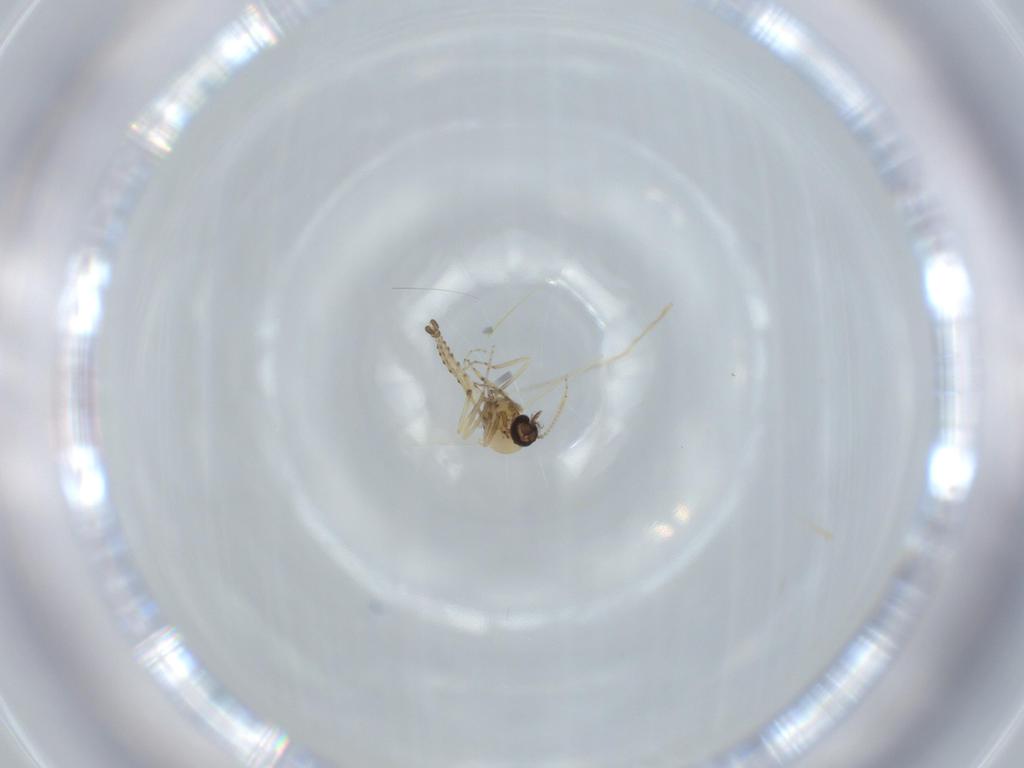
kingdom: Animalia
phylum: Arthropoda
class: Insecta
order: Diptera
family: Ceratopogonidae
